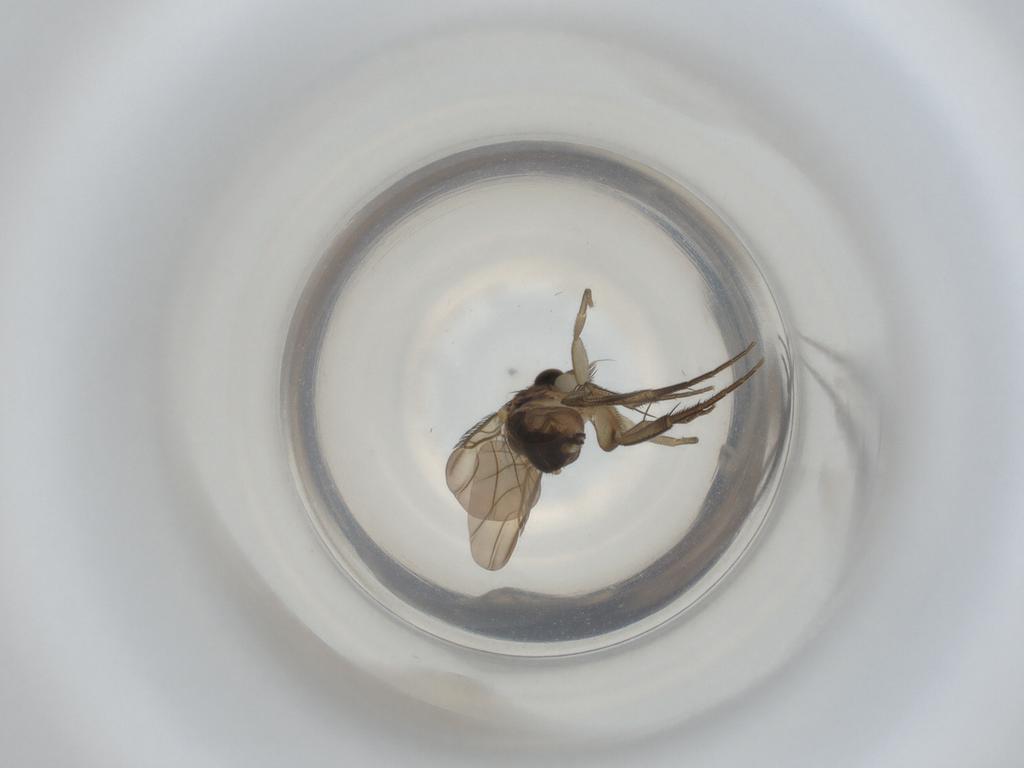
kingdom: Animalia
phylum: Arthropoda
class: Insecta
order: Diptera
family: Phoridae
